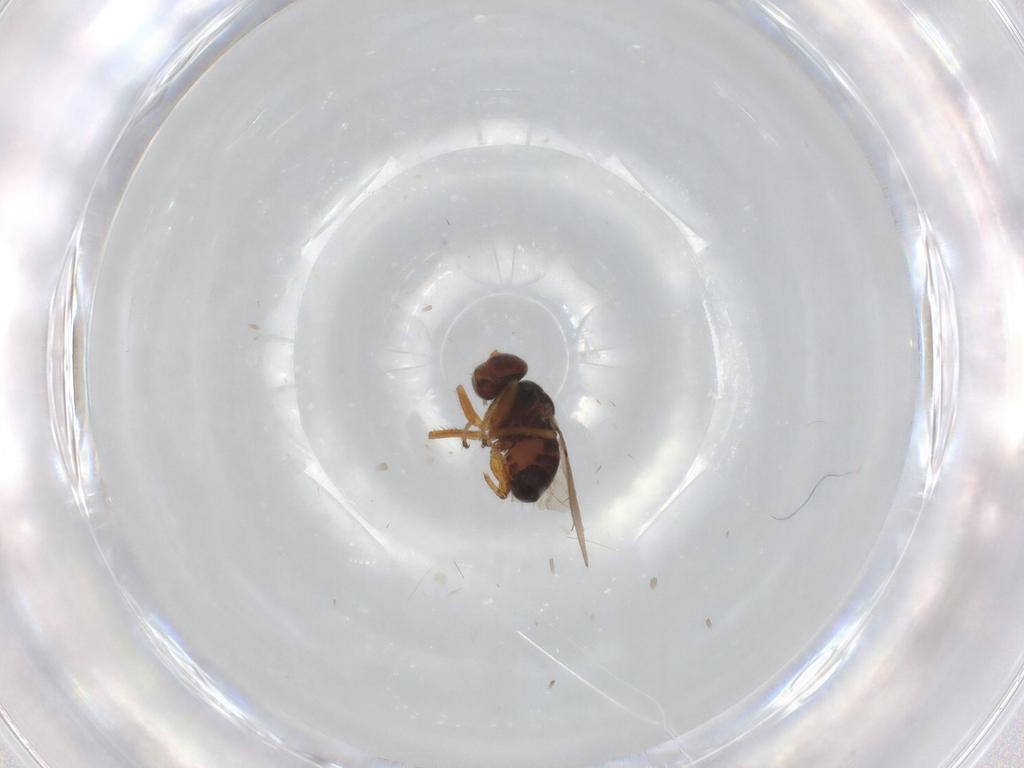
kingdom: Animalia
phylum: Arthropoda
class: Insecta
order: Diptera
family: Ephydridae
